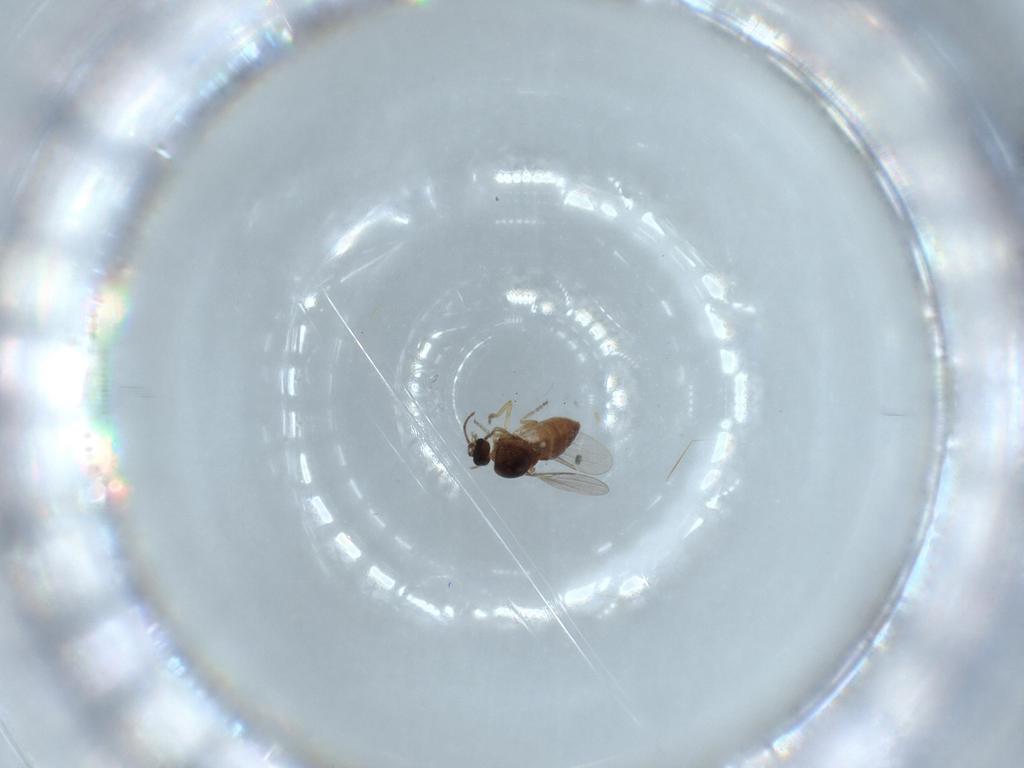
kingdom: Animalia
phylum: Arthropoda
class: Insecta
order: Diptera
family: Ceratopogonidae
